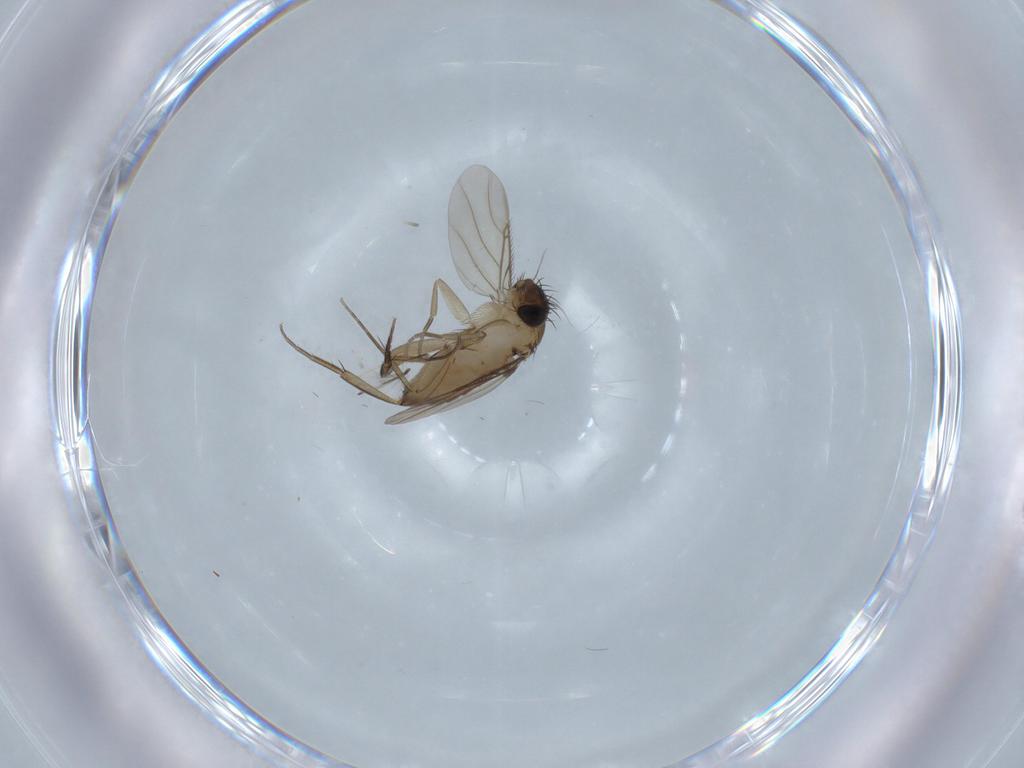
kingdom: Animalia
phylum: Arthropoda
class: Insecta
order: Diptera
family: Phoridae
